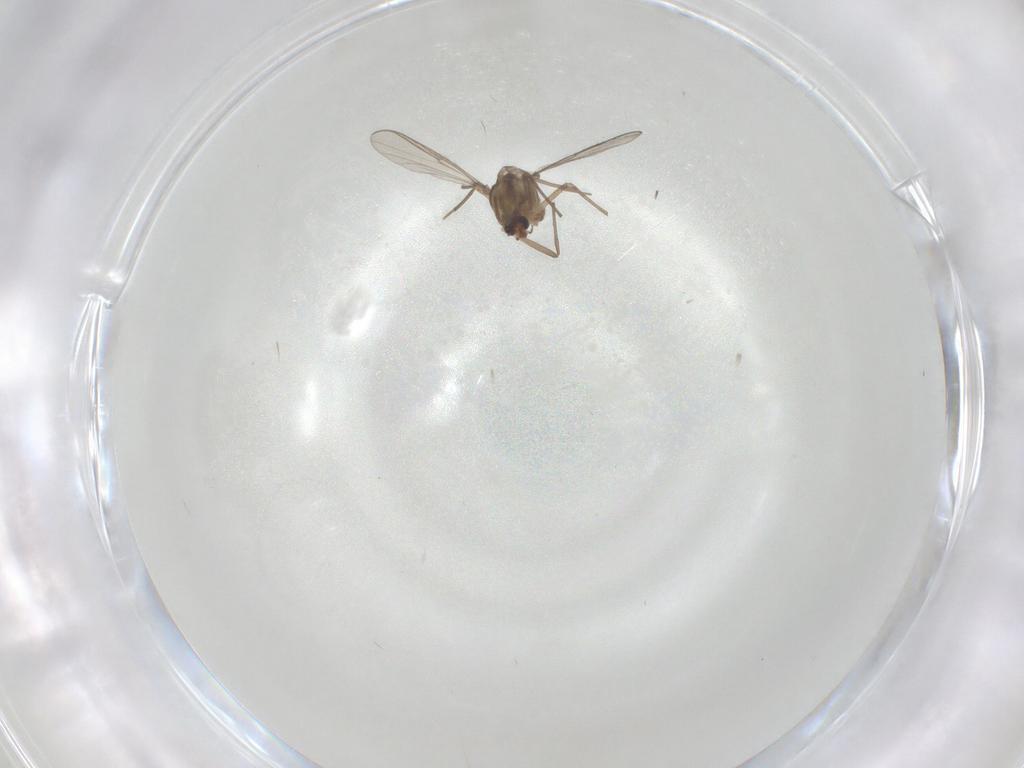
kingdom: Animalia
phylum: Arthropoda
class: Insecta
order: Diptera
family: Chironomidae
